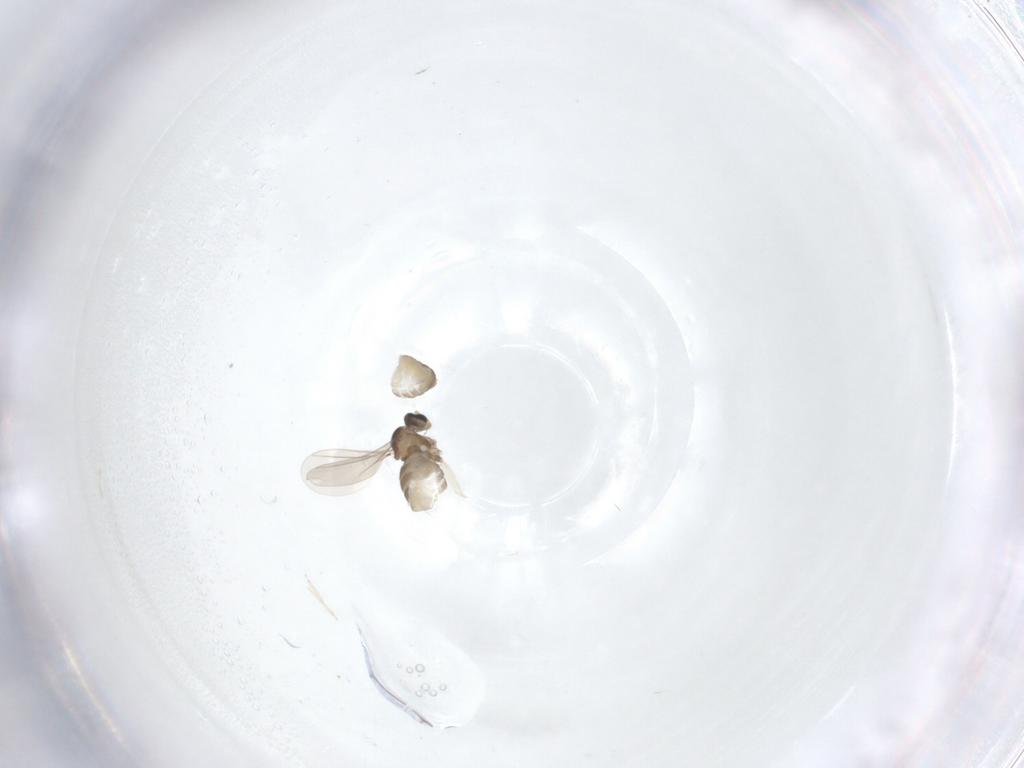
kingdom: Animalia
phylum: Arthropoda
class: Insecta
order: Diptera
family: Cecidomyiidae
